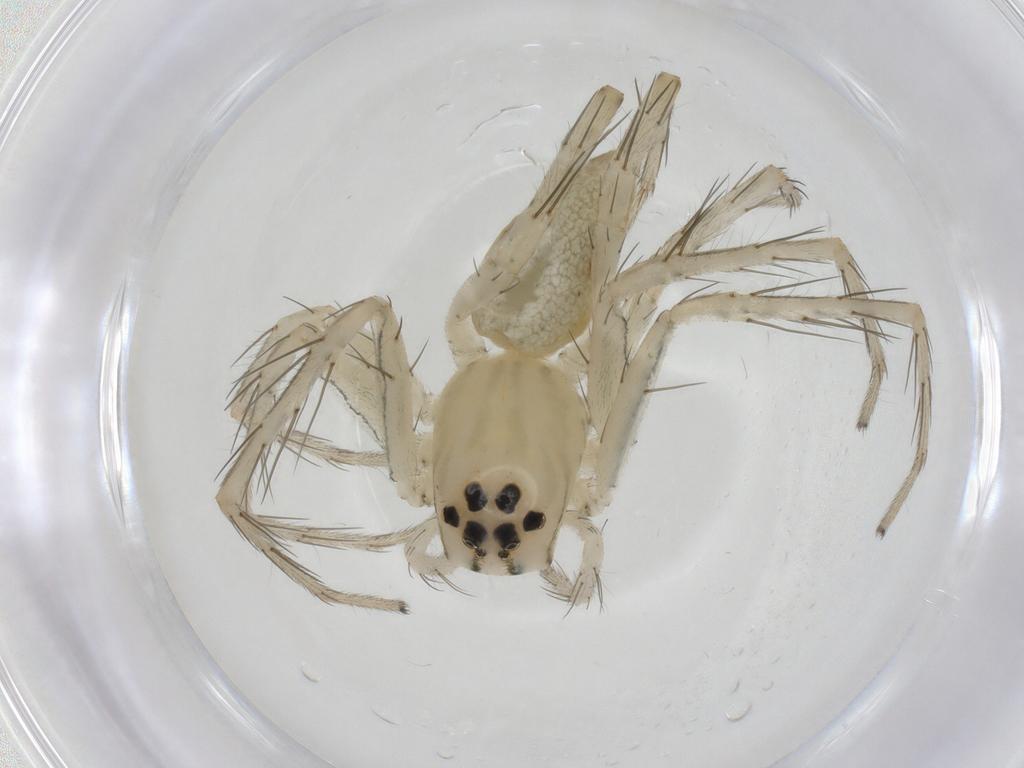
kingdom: Animalia
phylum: Arthropoda
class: Arachnida
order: Araneae
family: Oxyopidae
